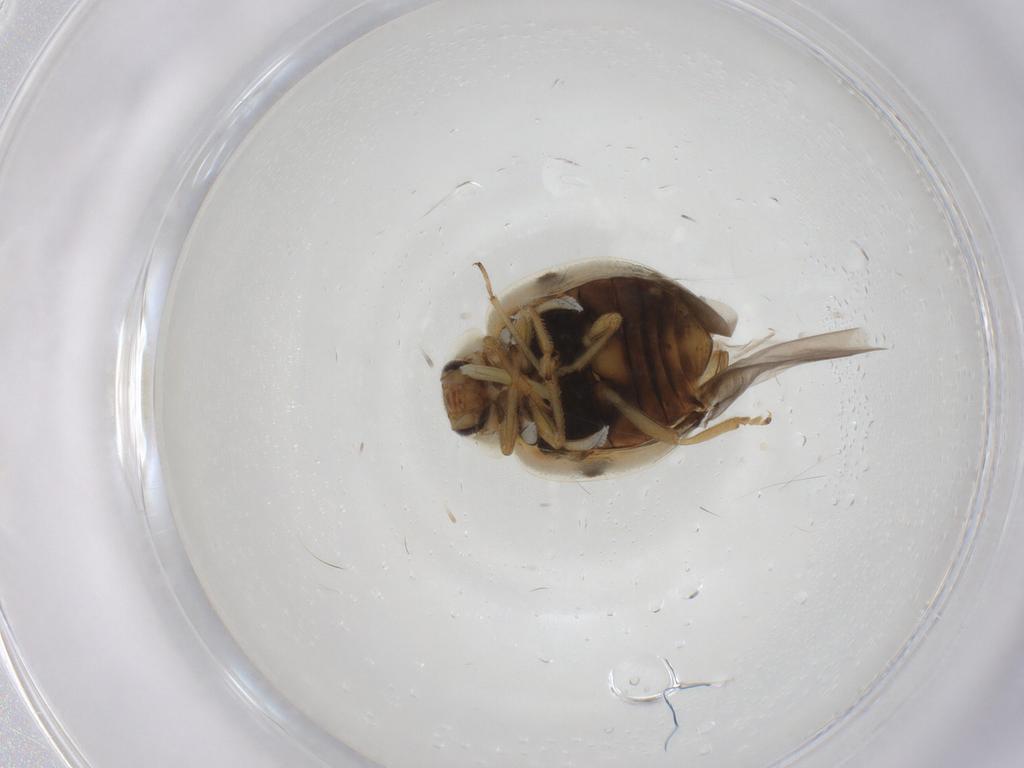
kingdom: Animalia
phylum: Arthropoda
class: Insecta
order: Coleoptera
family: Coccinellidae
